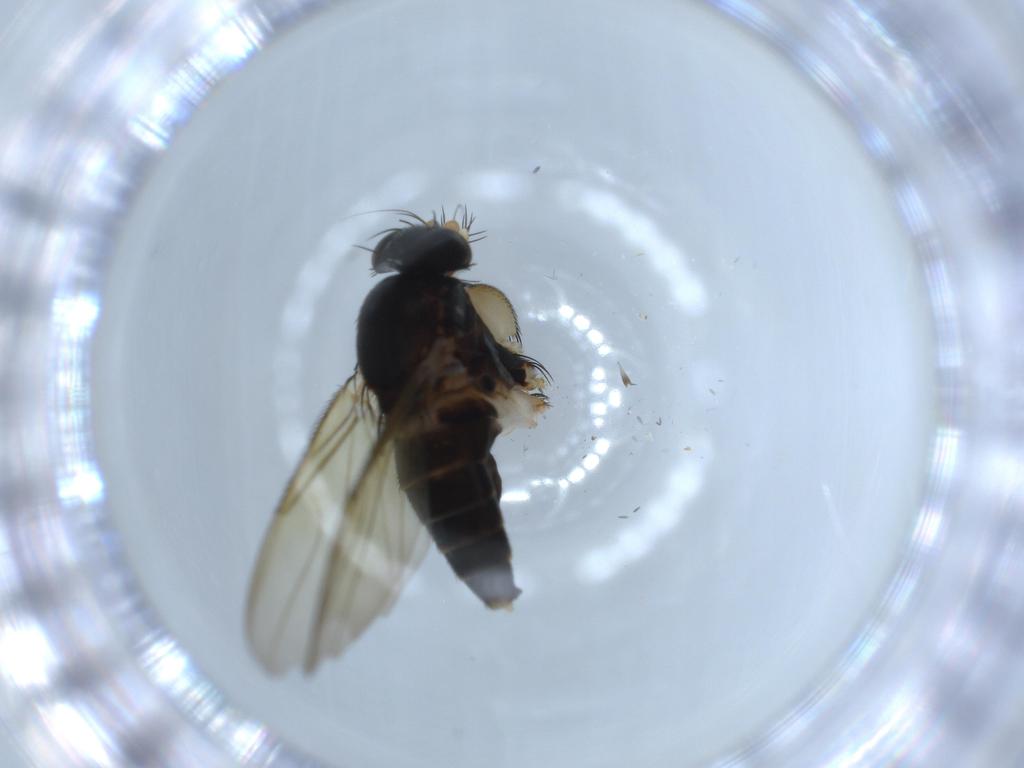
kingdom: Animalia
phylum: Arthropoda
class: Insecta
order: Diptera
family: Phoridae
